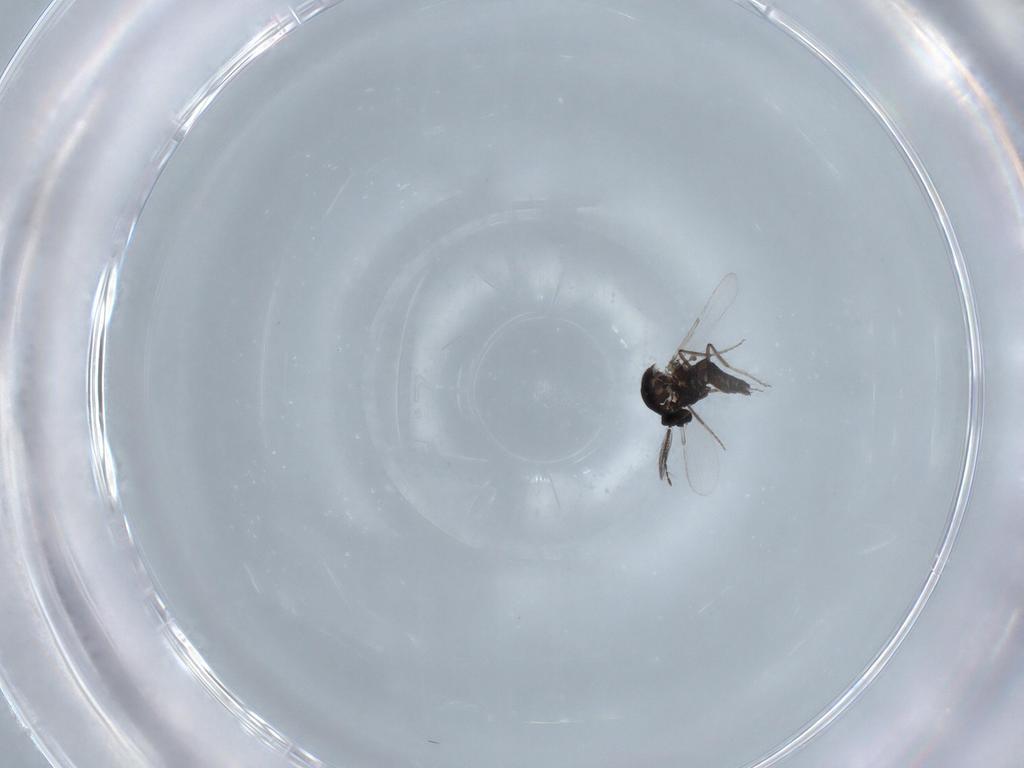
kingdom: Animalia
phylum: Arthropoda
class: Insecta
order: Diptera
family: Ceratopogonidae
